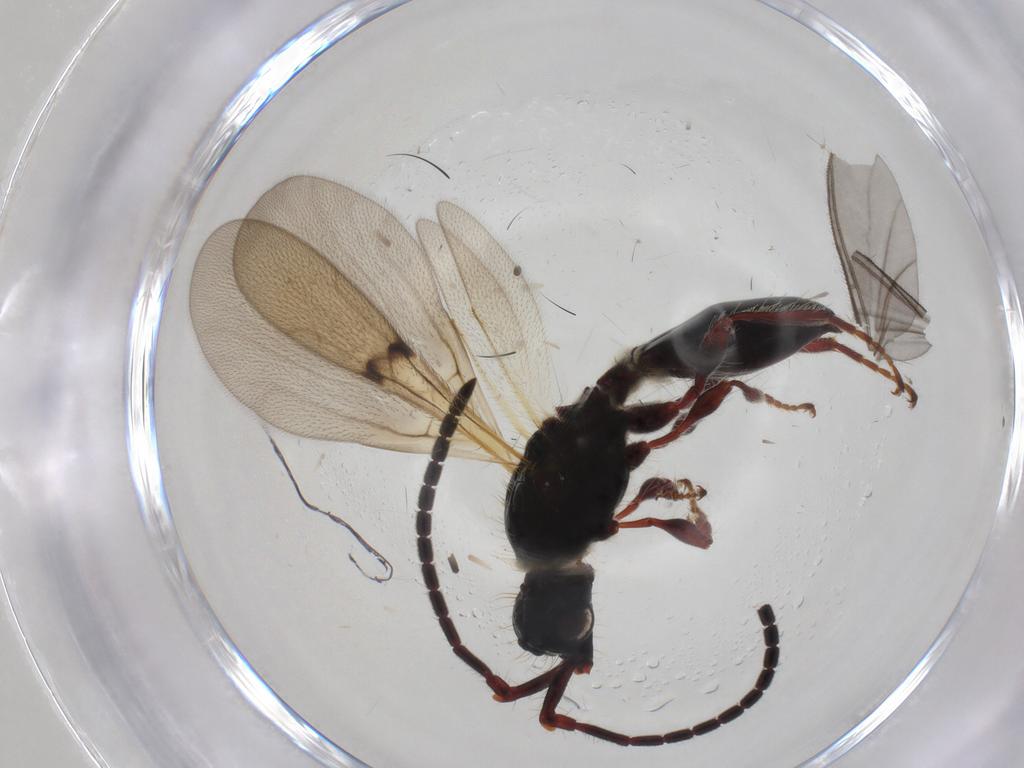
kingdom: Animalia
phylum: Arthropoda
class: Insecta
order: Hymenoptera
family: Diapriidae
